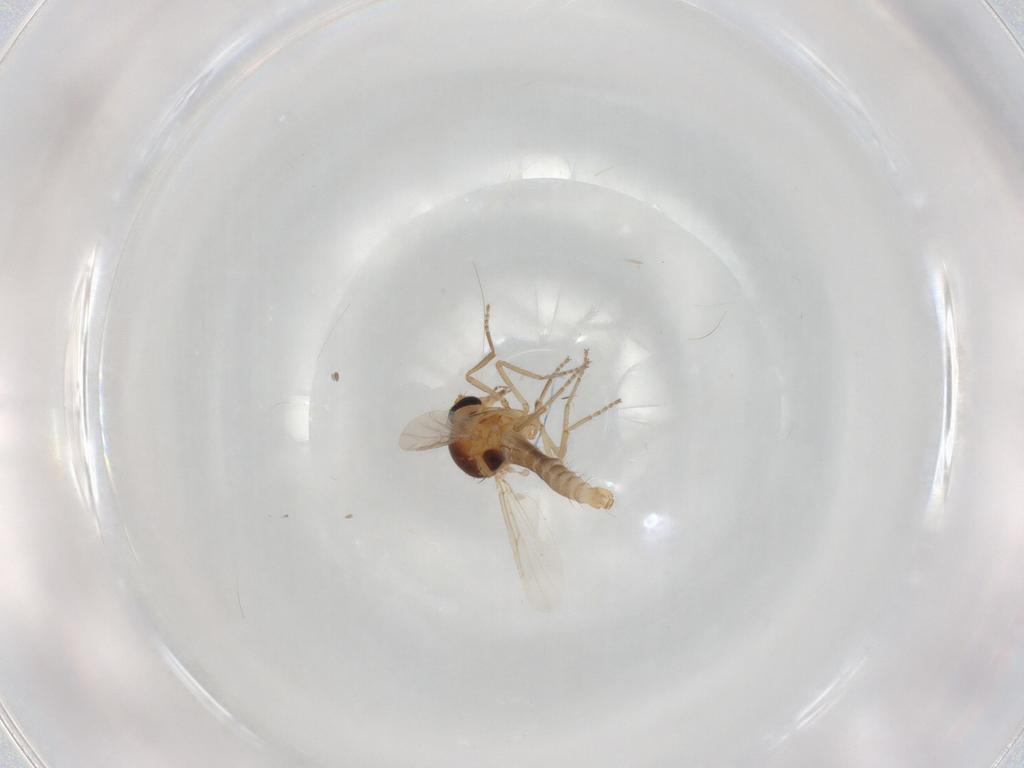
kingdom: Animalia
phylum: Arthropoda
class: Insecta
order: Diptera
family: Ceratopogonidae
